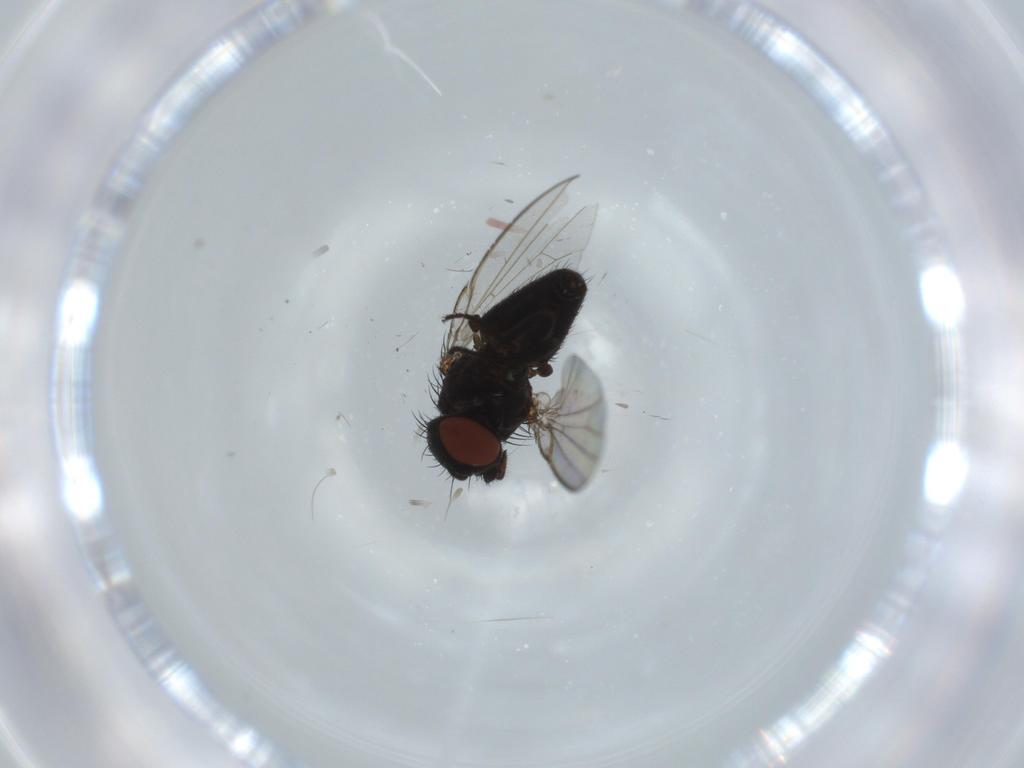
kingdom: Animalia
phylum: Arthropoda
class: Insecta
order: Diptera
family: Milichiidae
